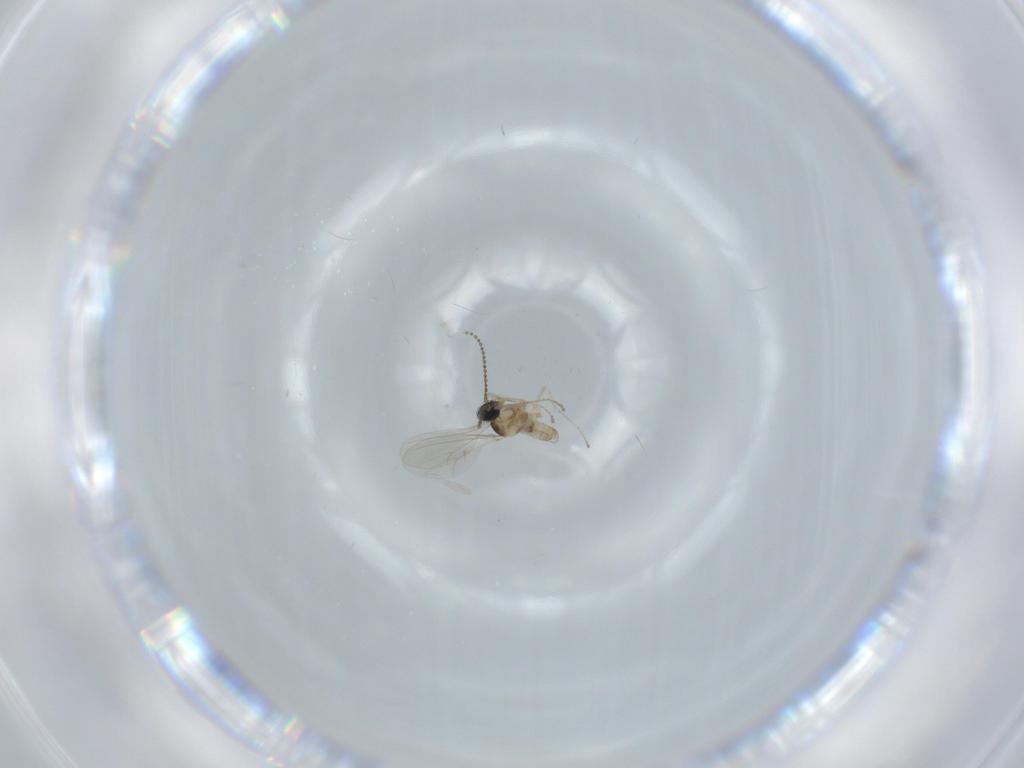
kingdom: Animalia
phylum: Arthropoda
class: Insecta
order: Diptera
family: Cecidomyiidae
